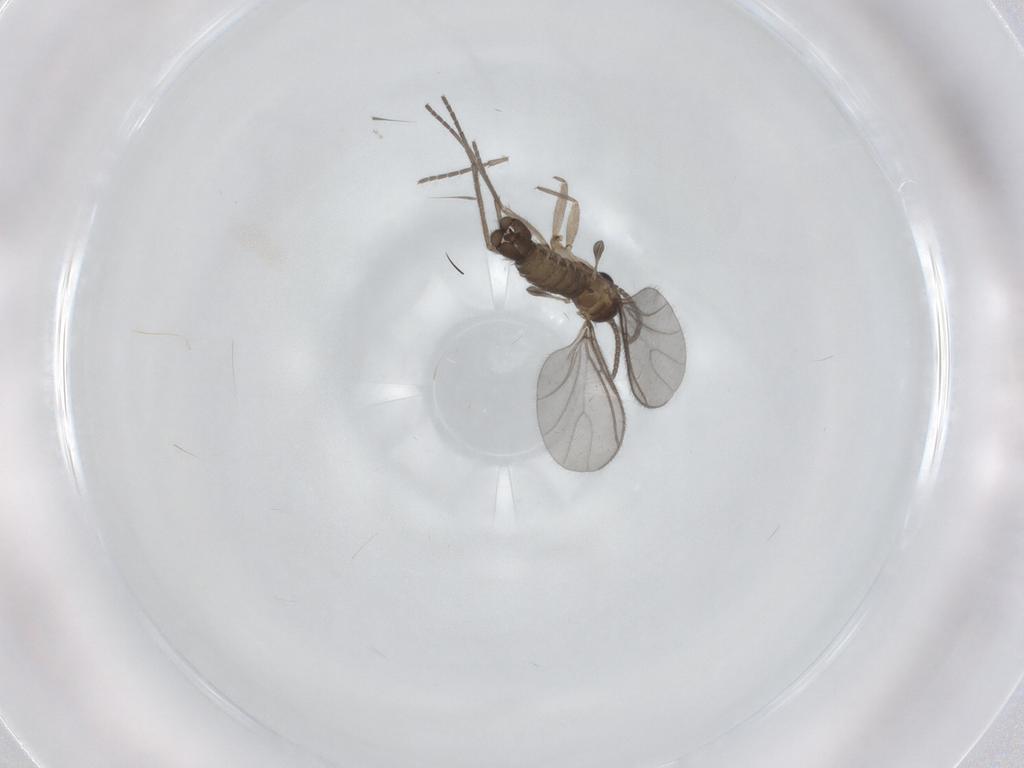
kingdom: Animalia
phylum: Arthropoda
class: Insecta
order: Diptera
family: Phoridae
